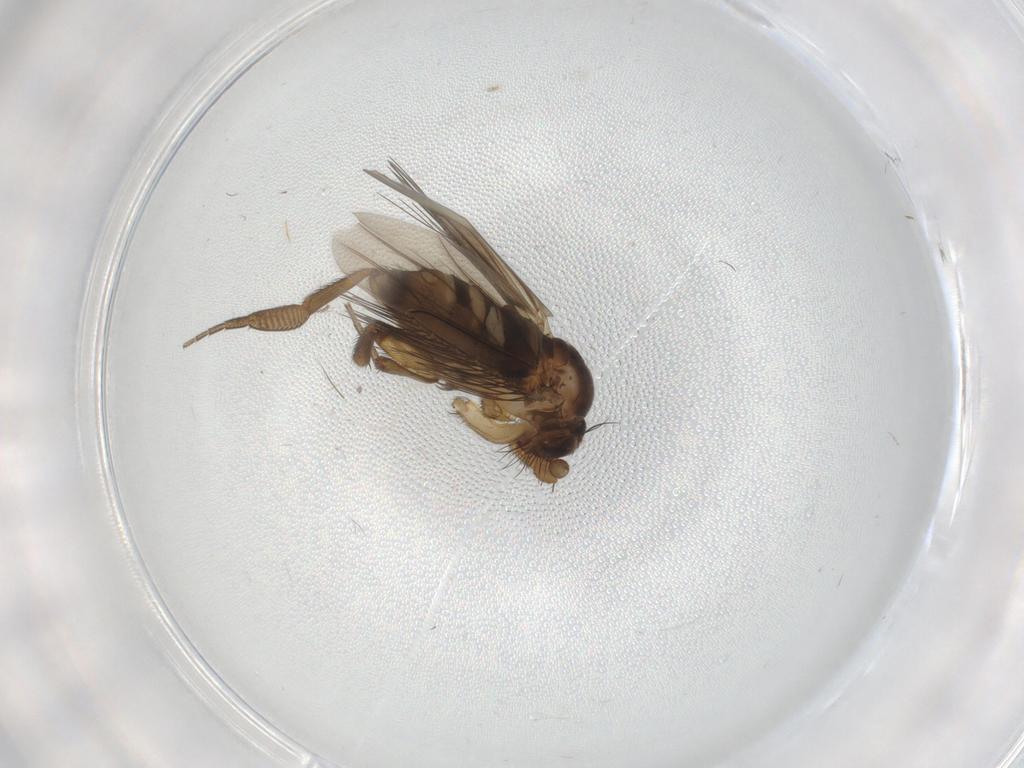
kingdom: Animalia
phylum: Arthropoda
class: Insecta
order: Diptera
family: Phoridae
